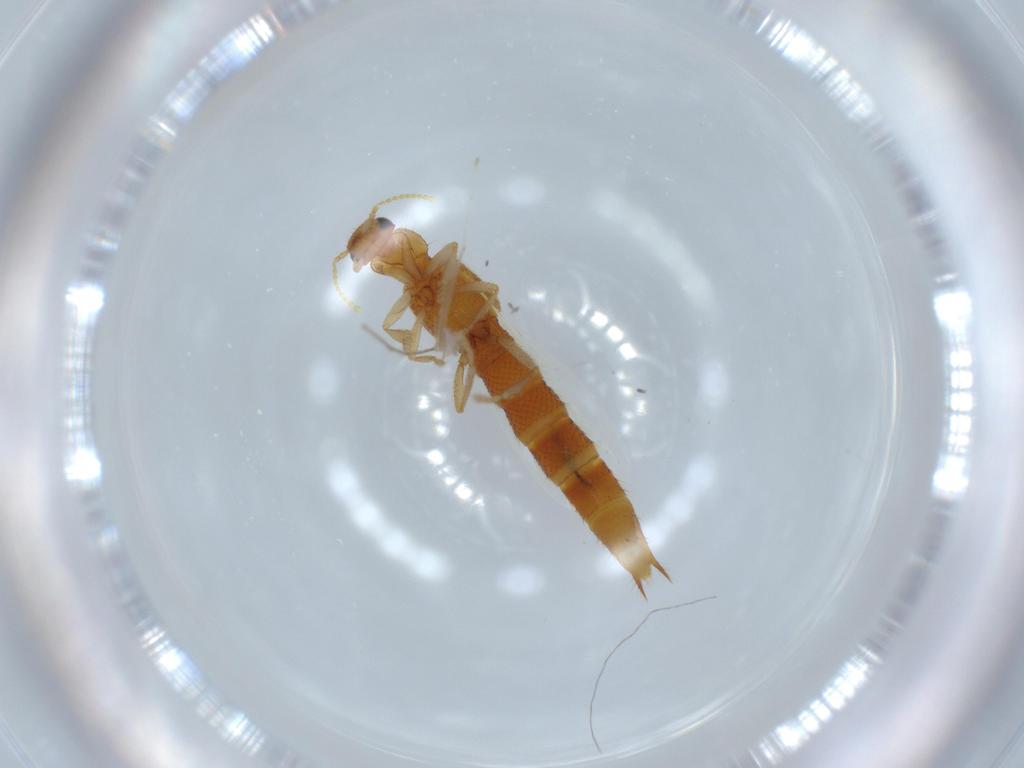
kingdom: Animalia
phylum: Arthropoda
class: Insecta
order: Coleoptera
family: Staphylinidae
